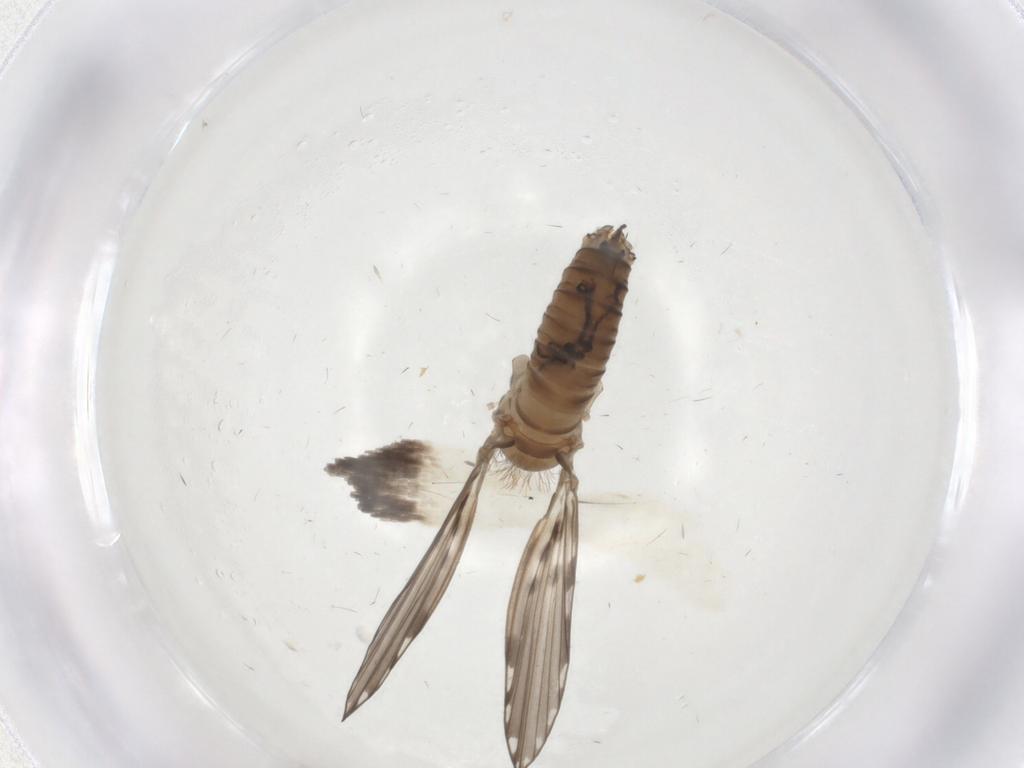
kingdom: Animalia
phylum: Arthropoda
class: Insecta
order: Diptera
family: Psychodidae
